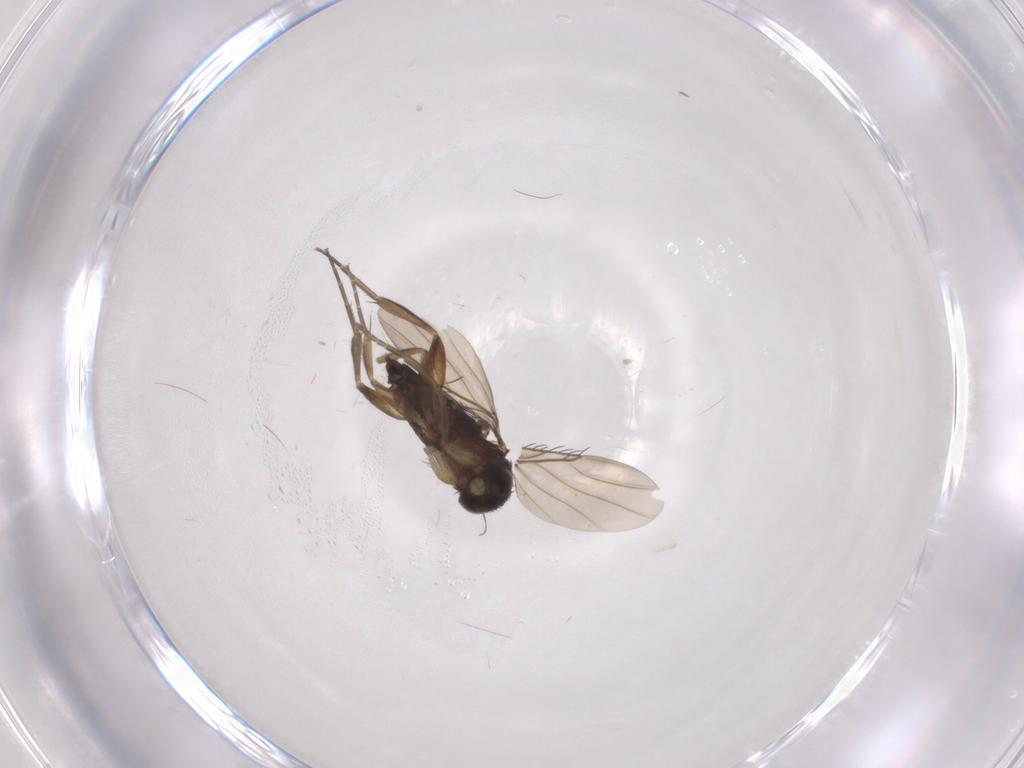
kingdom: Animalia
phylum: Arthropoda
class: Insecta
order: Diptera
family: Phoridae
